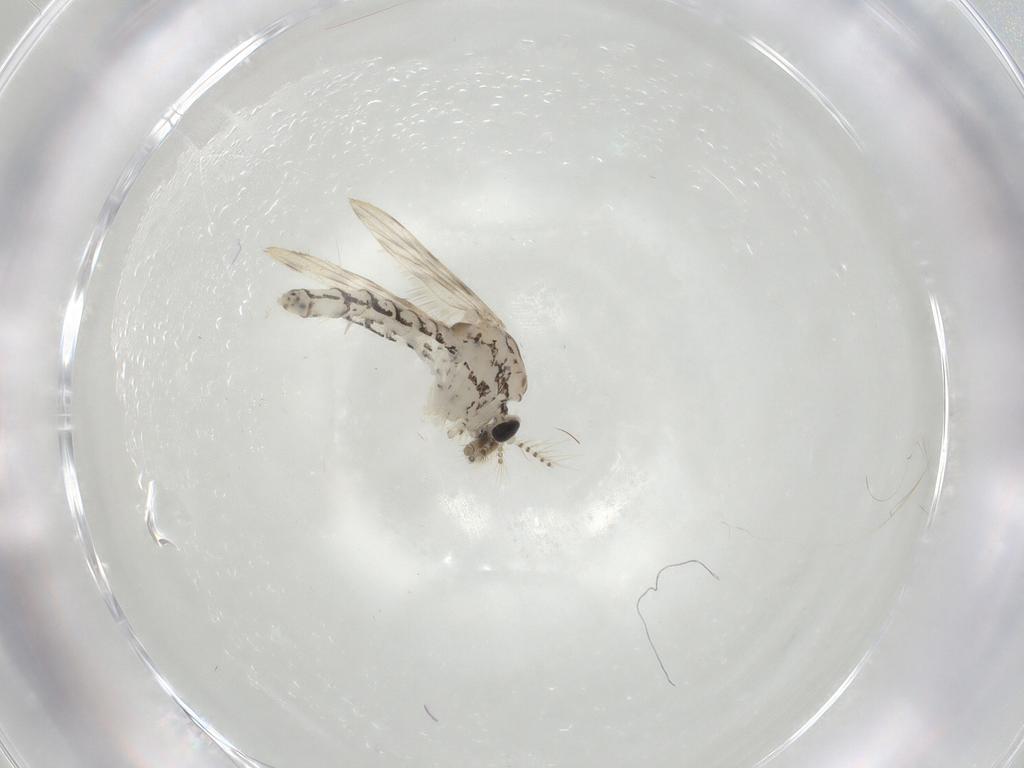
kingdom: Animalia
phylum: Arthropoda
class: Insecta
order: Diptera
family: Chaoboridae
